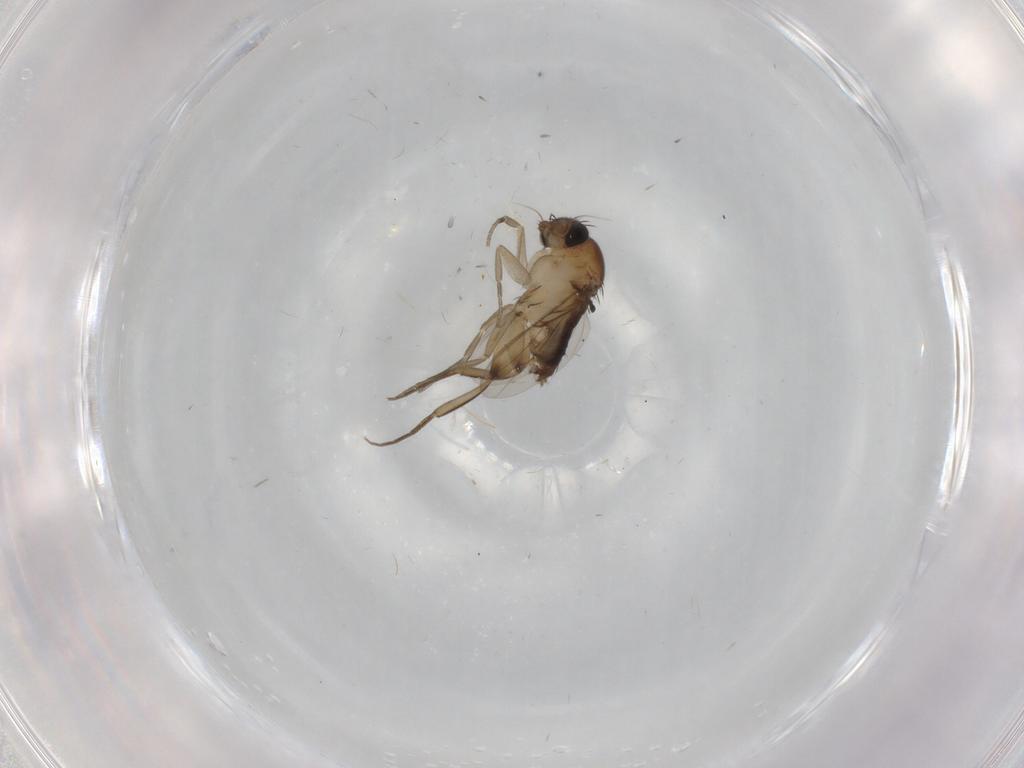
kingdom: Animalia
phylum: Arthropoda
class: Insecta
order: Diptera
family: Phoridae
